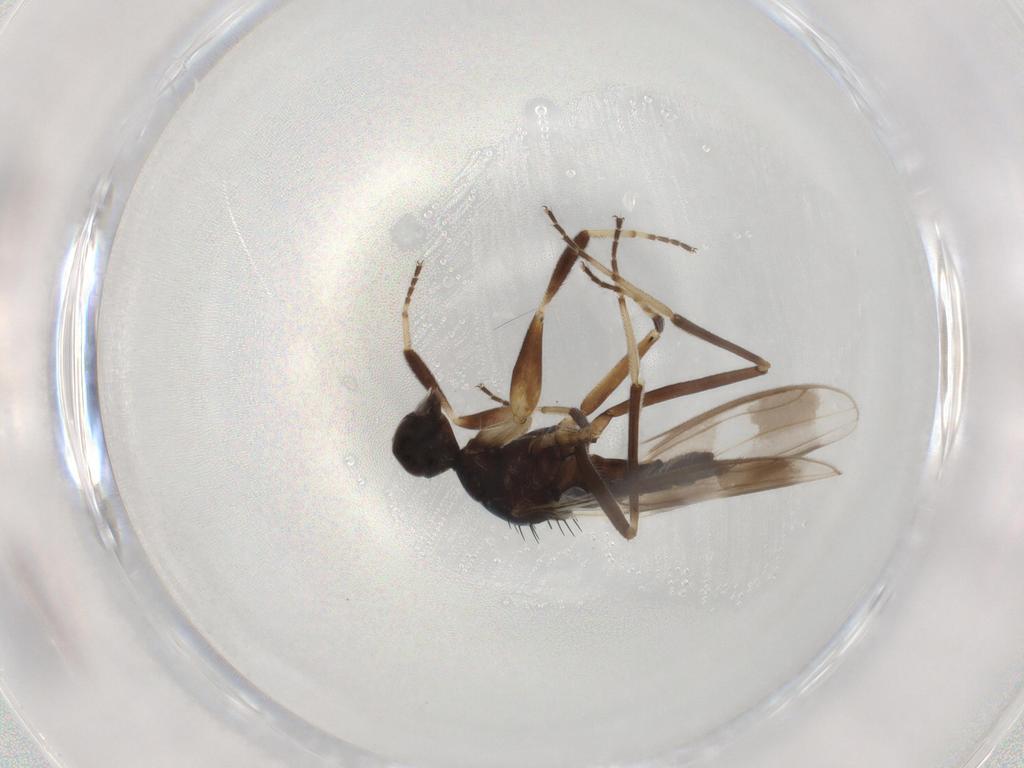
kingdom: Animalia
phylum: Arthropoda
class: Insecta
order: Diptera
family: Hybotidae
